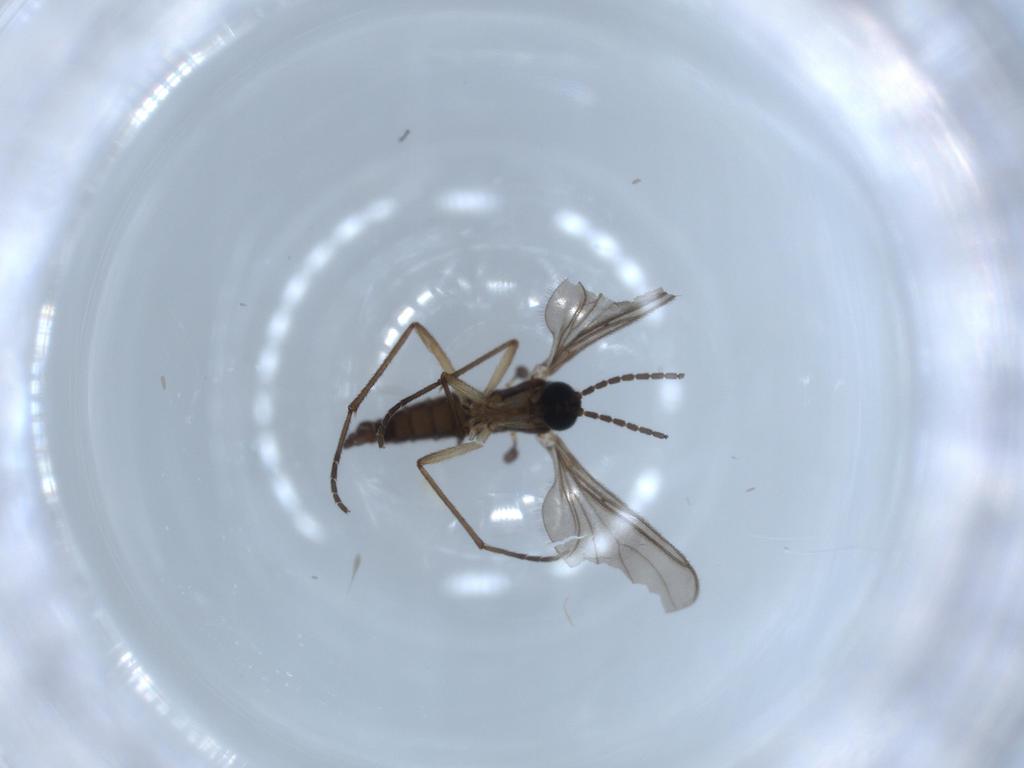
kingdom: Animalia
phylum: Arthropoda
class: Insecta
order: Diptera
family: Sciaridae
